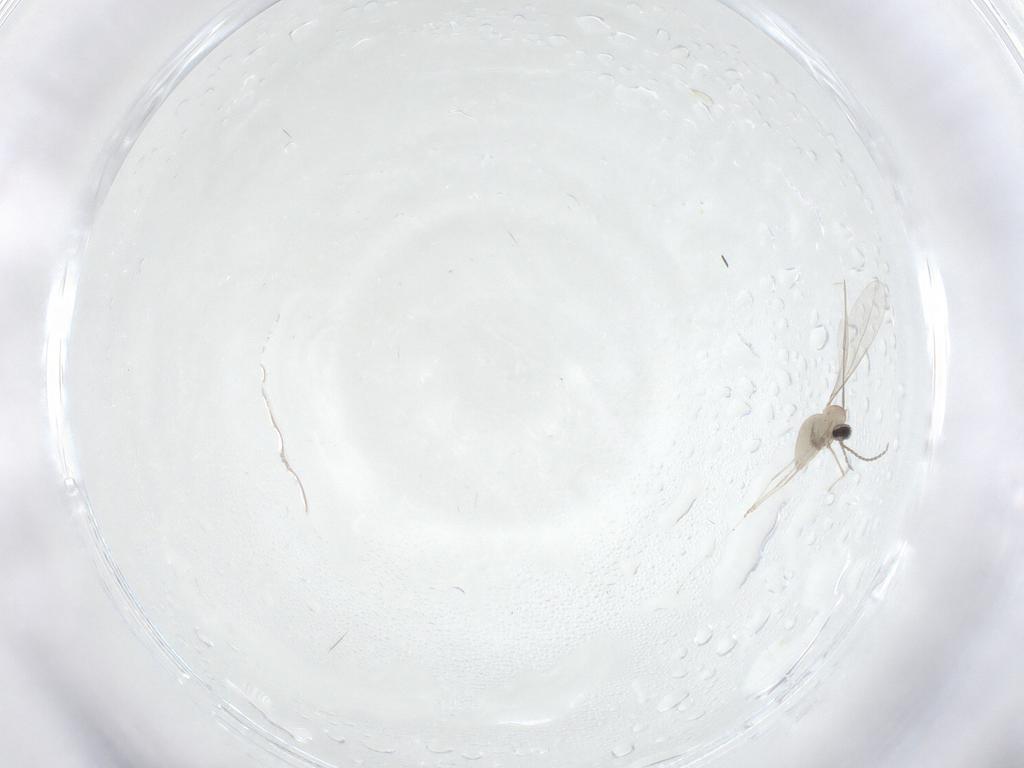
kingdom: Animalia
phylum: Arthropoda
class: Insecta
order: Diptera
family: Cecidomyiidae
